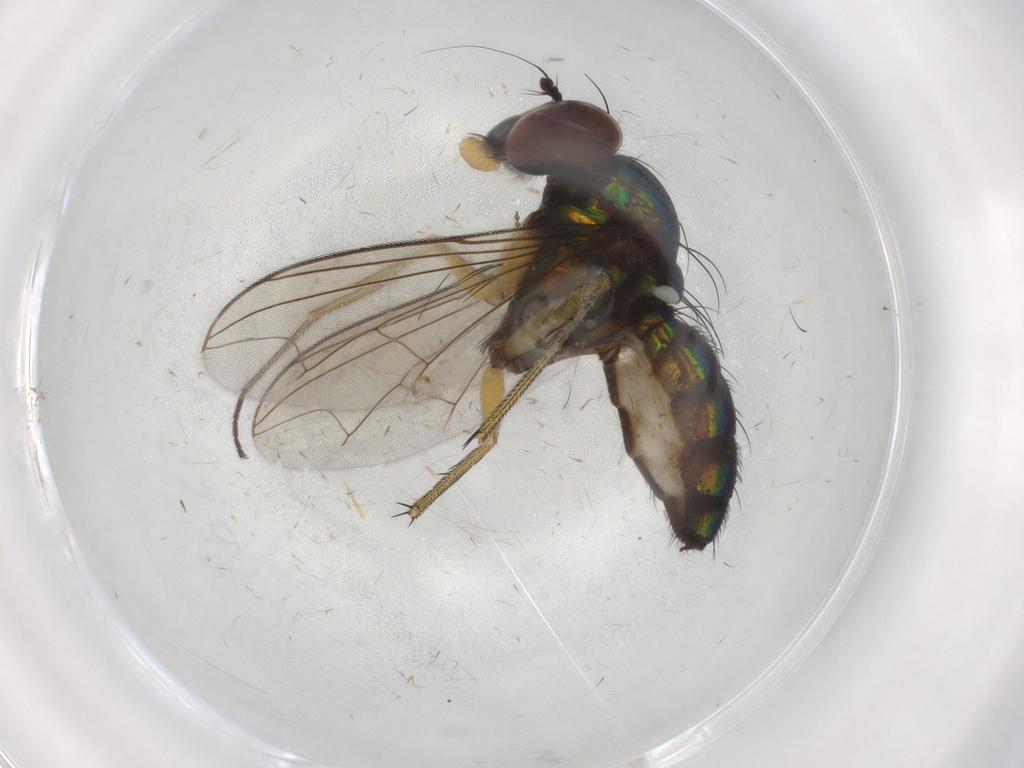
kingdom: Animalia
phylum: Arthropoda
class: Insecta
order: Diptera
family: Dolichopodidae
